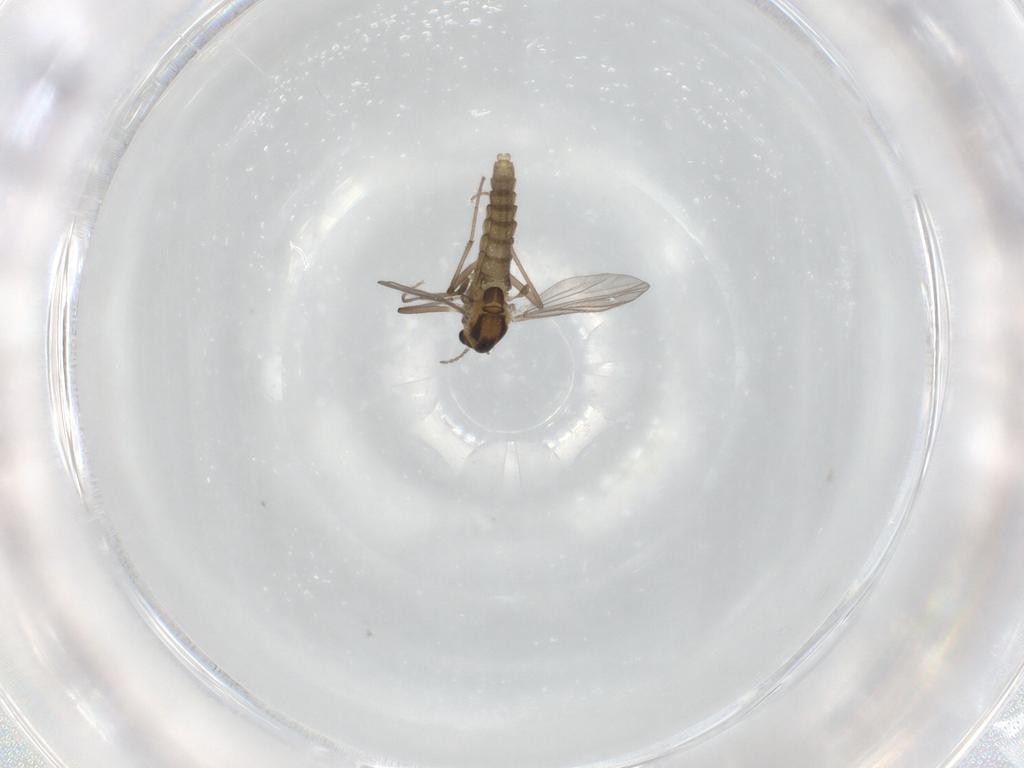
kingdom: Animalia
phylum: Arthropoda
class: Insecta
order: Diptera
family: Chironomidae
